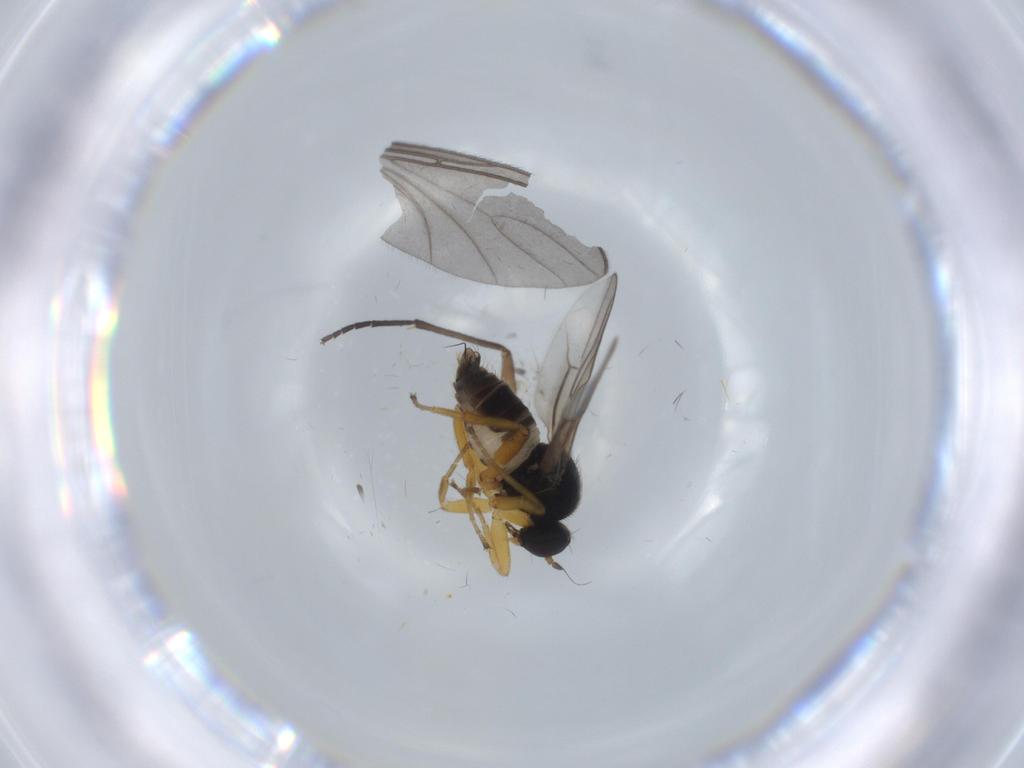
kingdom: Animalia
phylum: Arthropoda
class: Insecta
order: Diptera
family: Hybotidae
